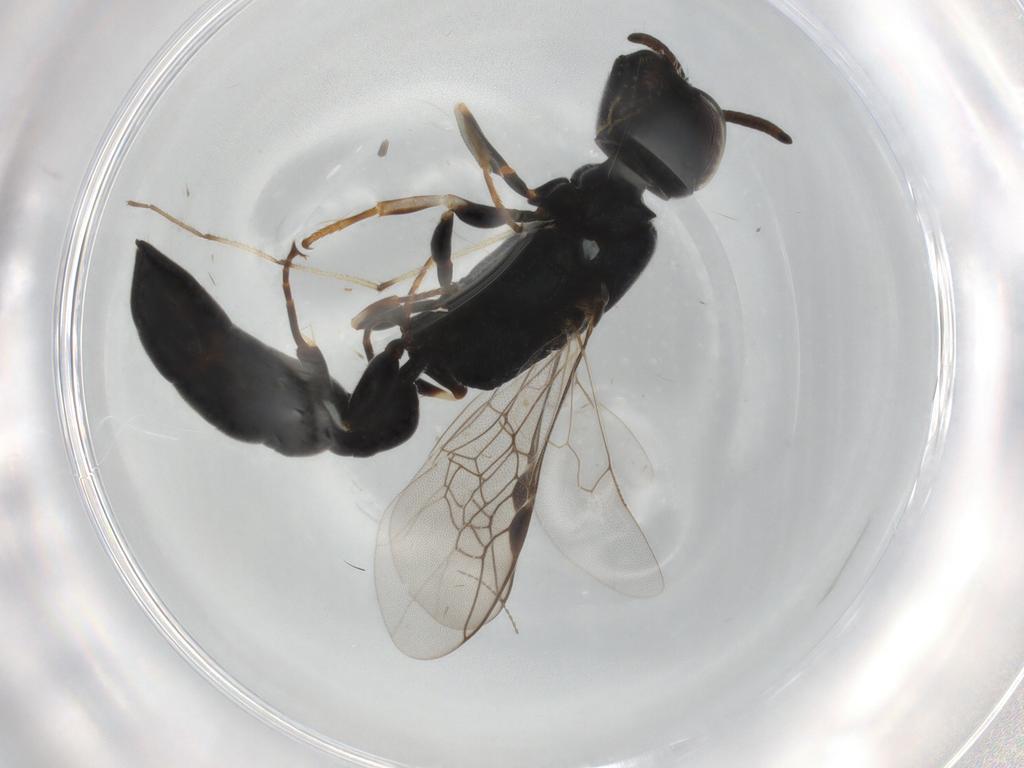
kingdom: Animalia
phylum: Arthropoda
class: Insecta
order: Hymenoptera
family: Pemphredonidae
